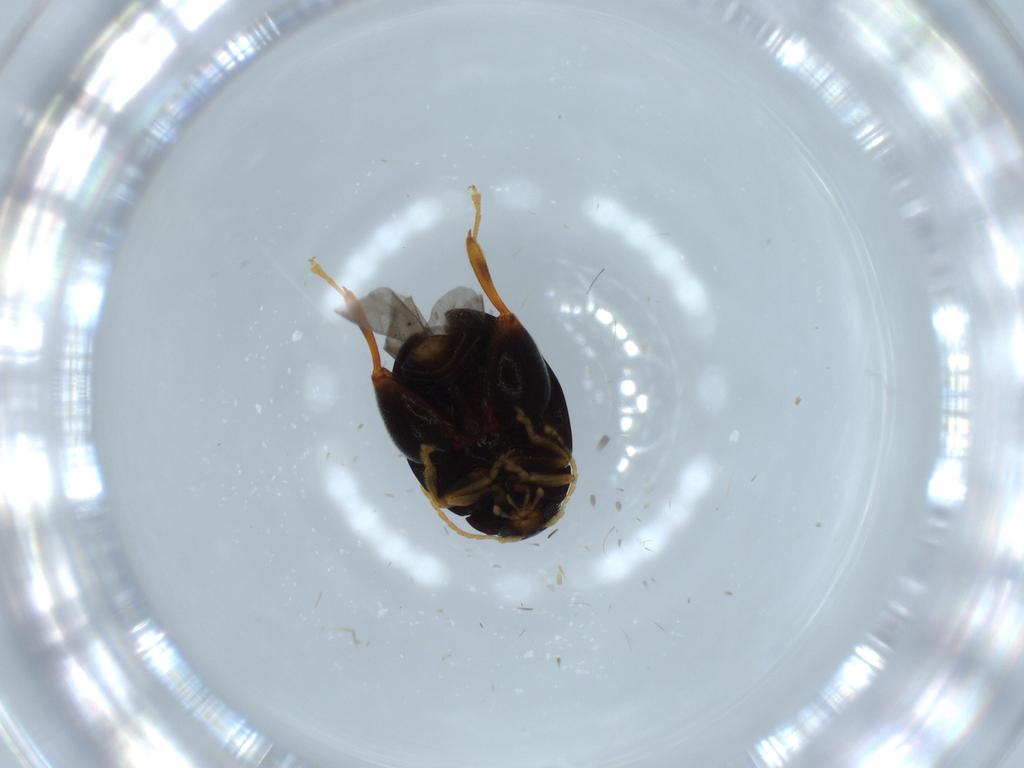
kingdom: Animalia
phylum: Arthropoda
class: Insecta
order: Coleoptera
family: Chrysomelidae
